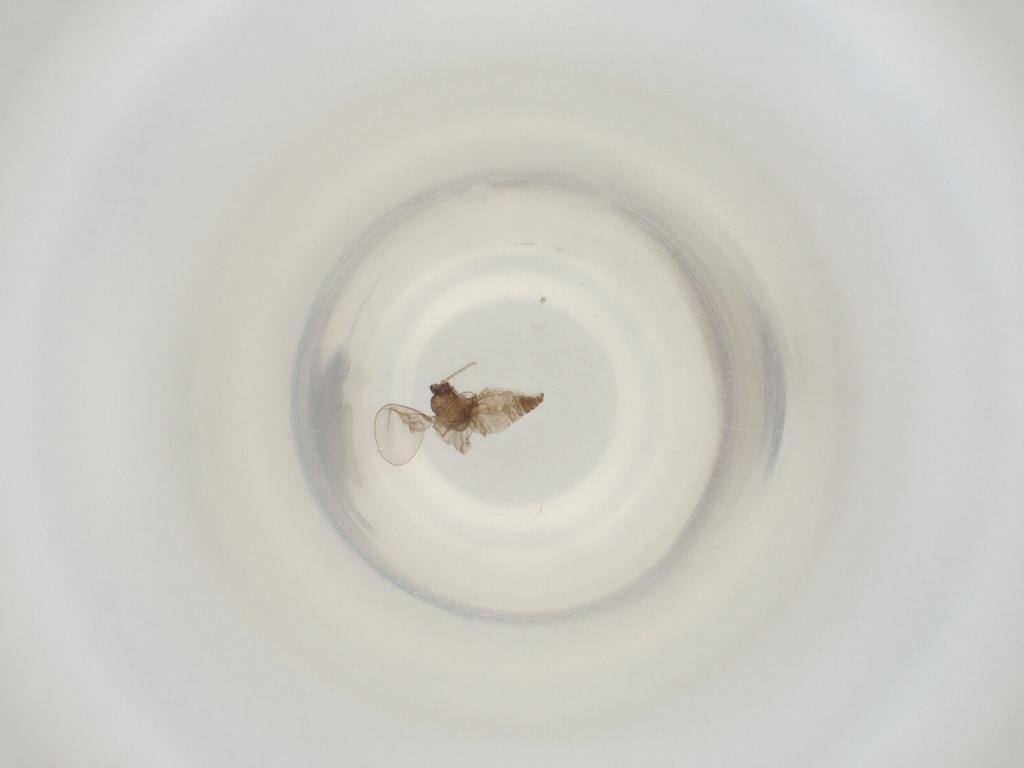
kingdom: Animalia
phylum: Arthropoda
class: Insecta
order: Diptera
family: Cecidomyiidae
